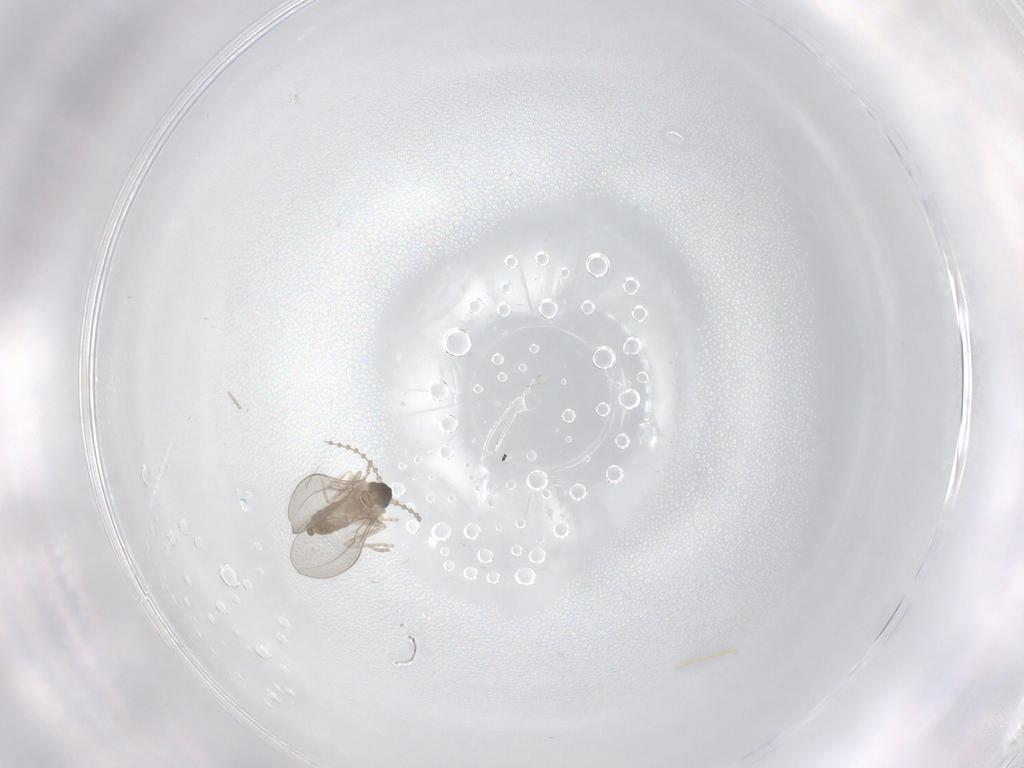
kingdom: Animalia
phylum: Arthropoda
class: Insecta
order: Diptera
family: Cecidomyiidae
